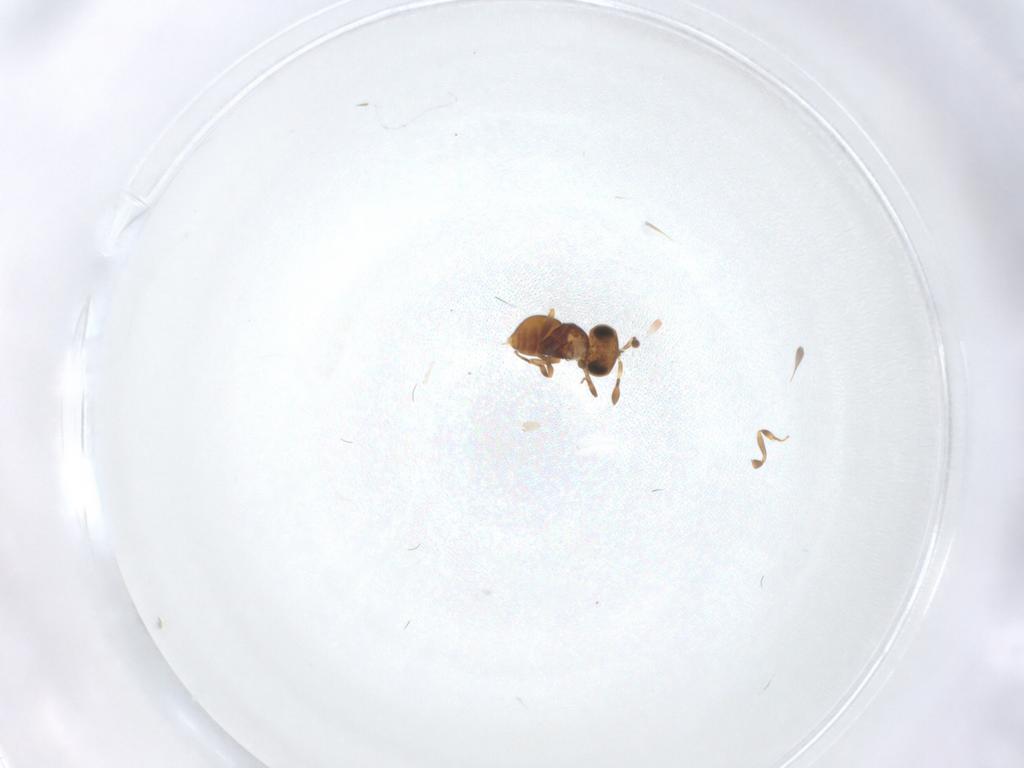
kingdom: Animalia
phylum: Arthropoda
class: Insecta
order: Hymenoptera
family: Scelionidae
